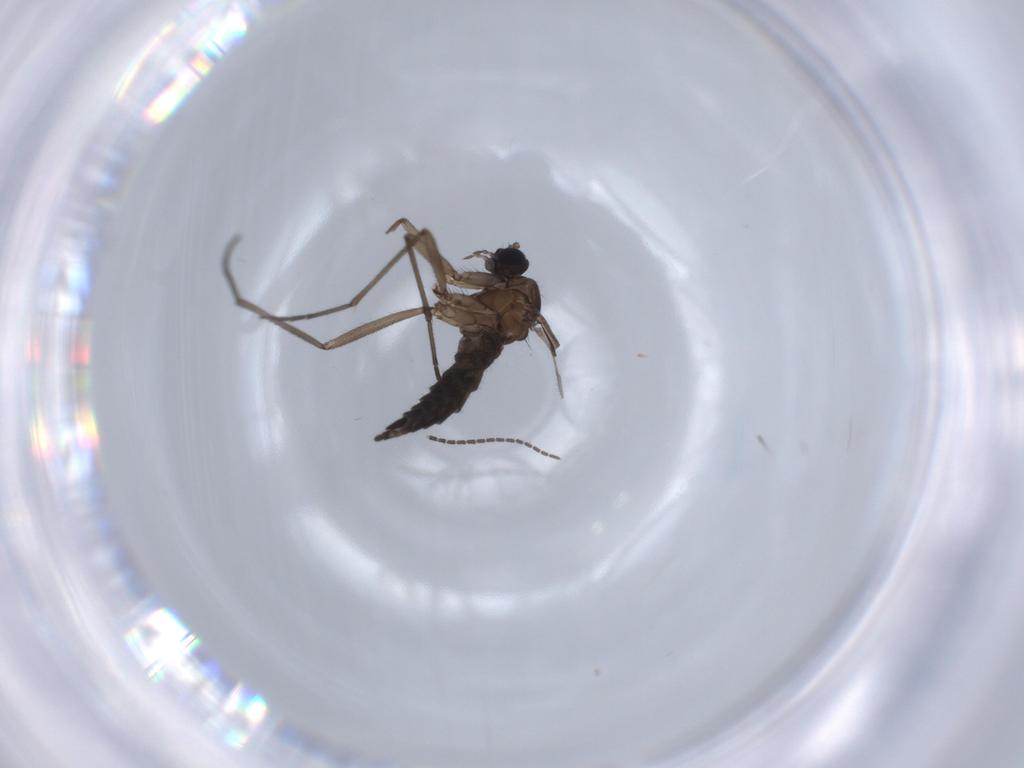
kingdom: Animalia
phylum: Arthropoda
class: Insecta
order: Diptera
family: Sciaridae
